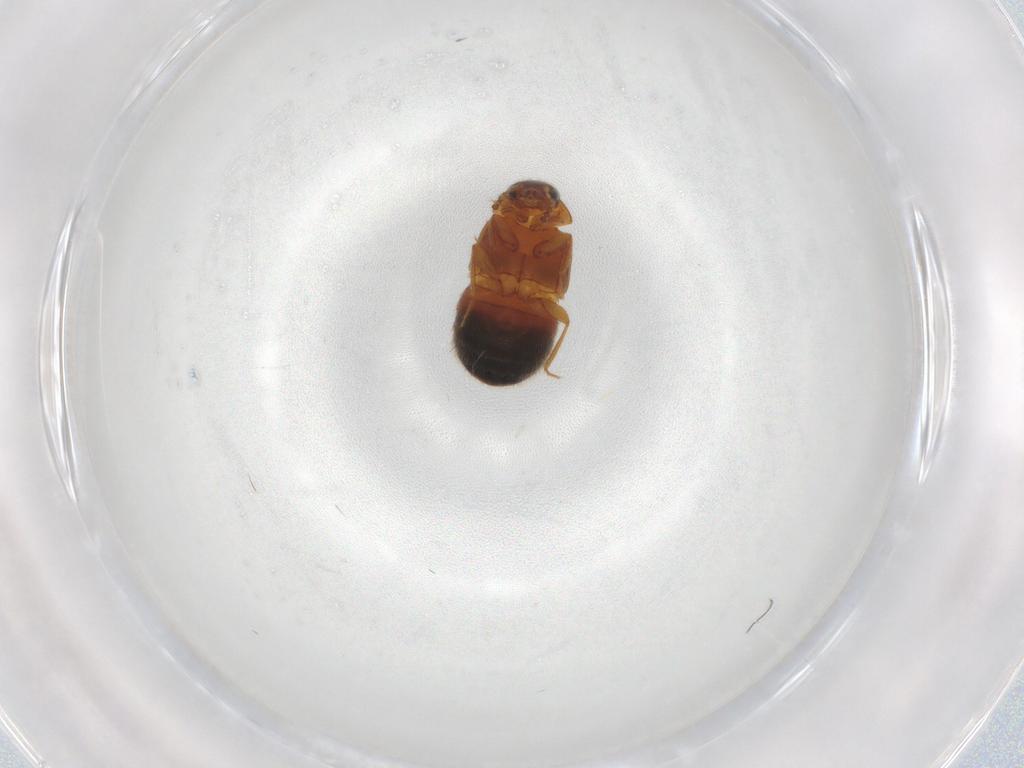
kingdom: Animalia
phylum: Arthropoda
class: Insecta
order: Coleoptera
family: Staphylinidae
